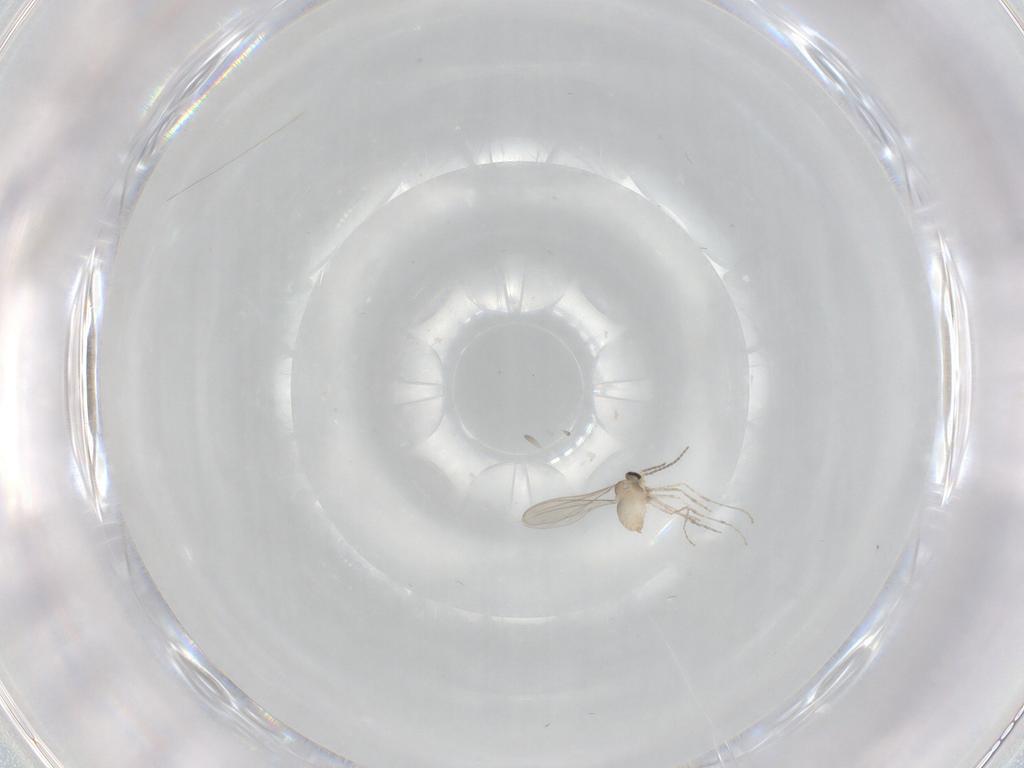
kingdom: Animalia
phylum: Arthropoda
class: Insecta
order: Diptera
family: Cecidomyiidae
